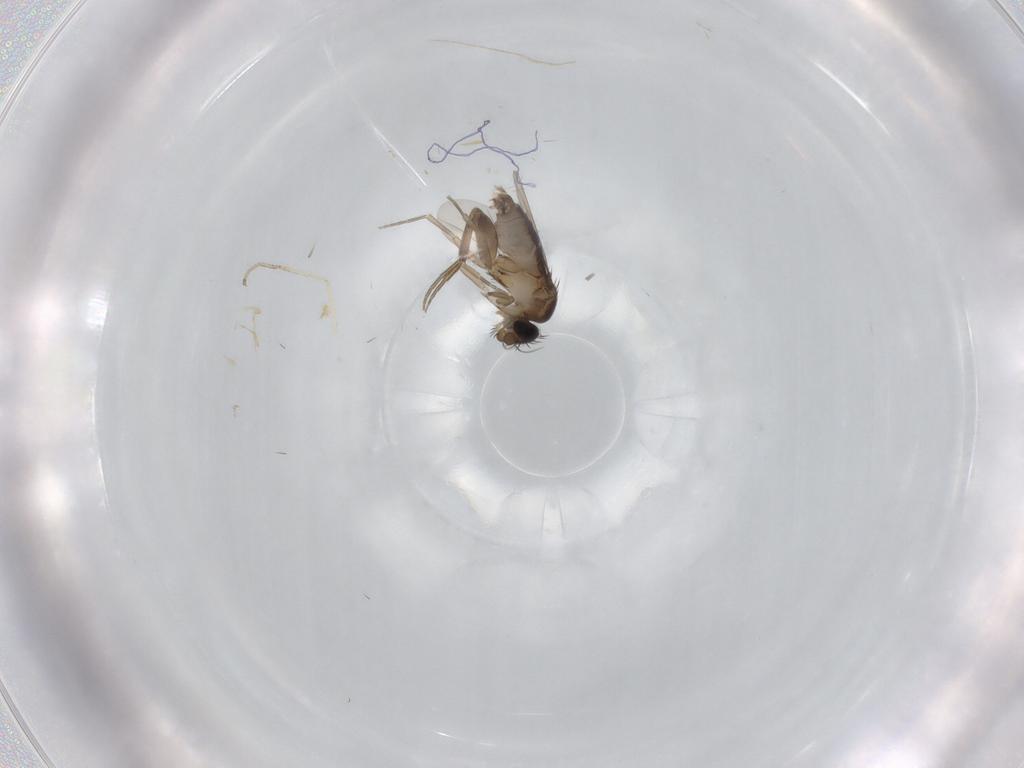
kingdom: Animalia
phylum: Arthropoda
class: Insecta
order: Diptera
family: Phoridae
